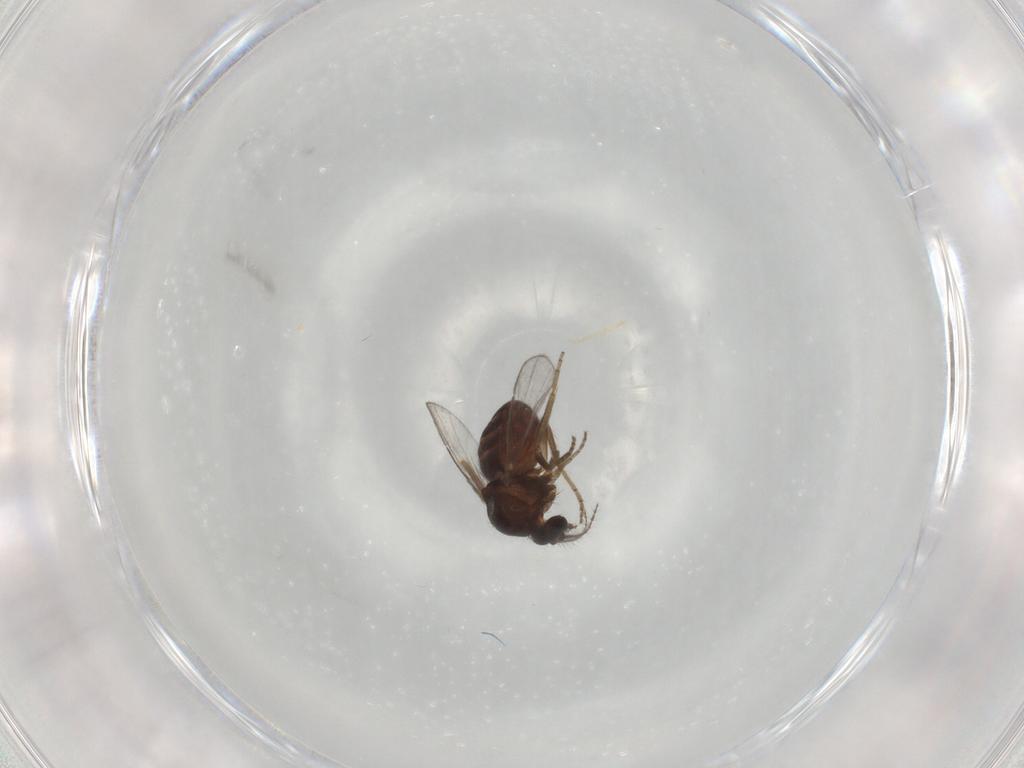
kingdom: Animalia
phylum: Arthropoda
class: Insecta
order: Diptera
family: Ceratopogonidae
